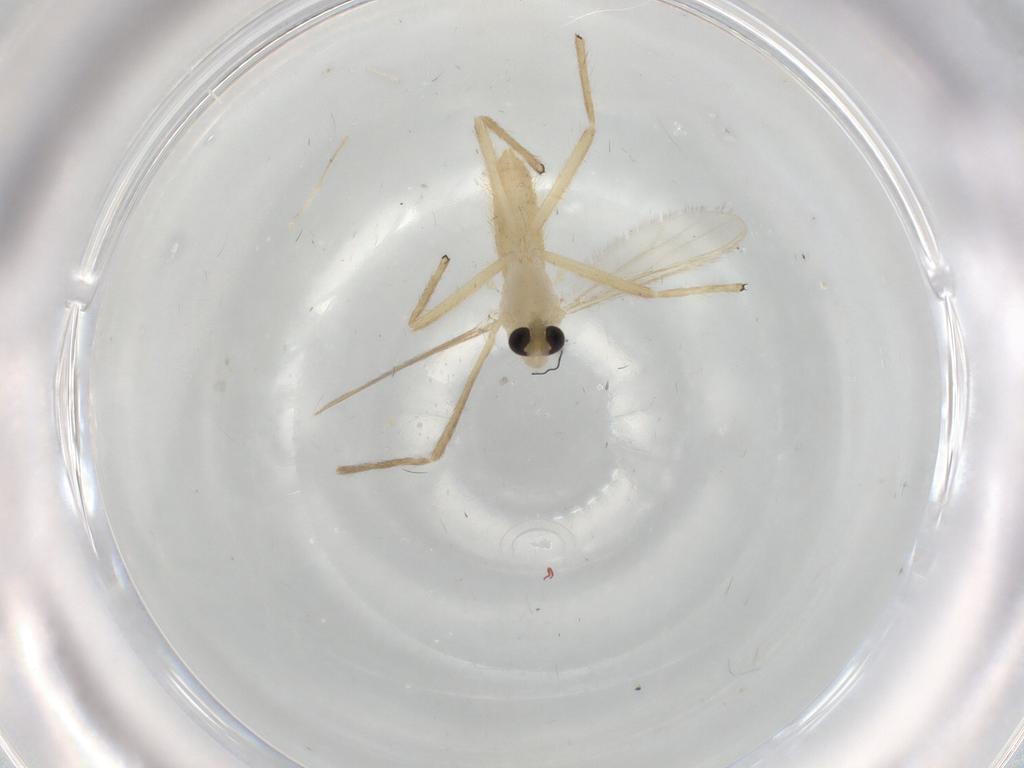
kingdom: Animalia
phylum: Arthropoda
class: Insecta
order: Diptera
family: Chironomidae
